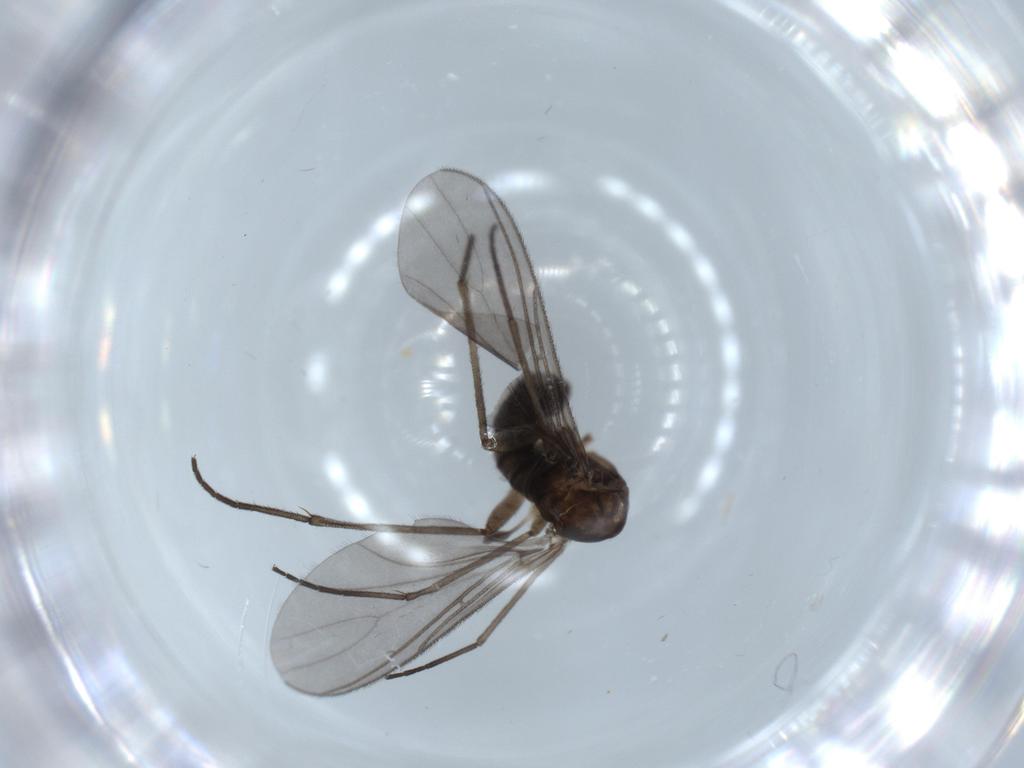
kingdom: Animalia
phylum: Arthropoda
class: Insecta
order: Diptera
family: Sciaridae
